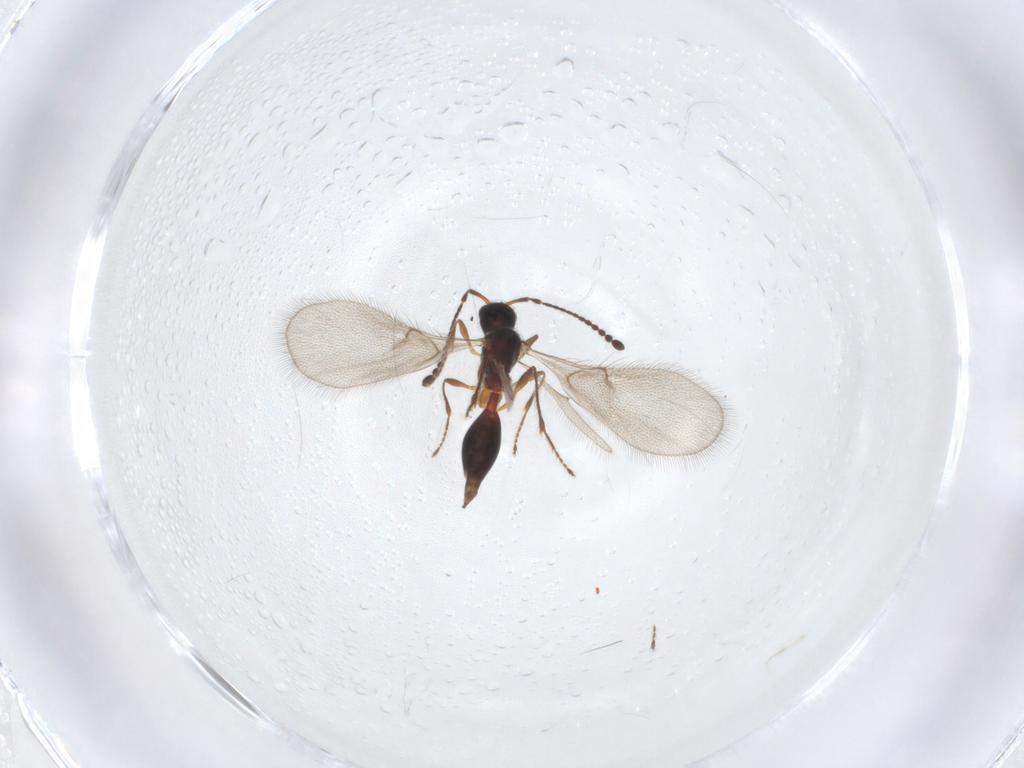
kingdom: Animalia
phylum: Arthropoda
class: Insecta
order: Hymenoptera
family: Diapriidae
